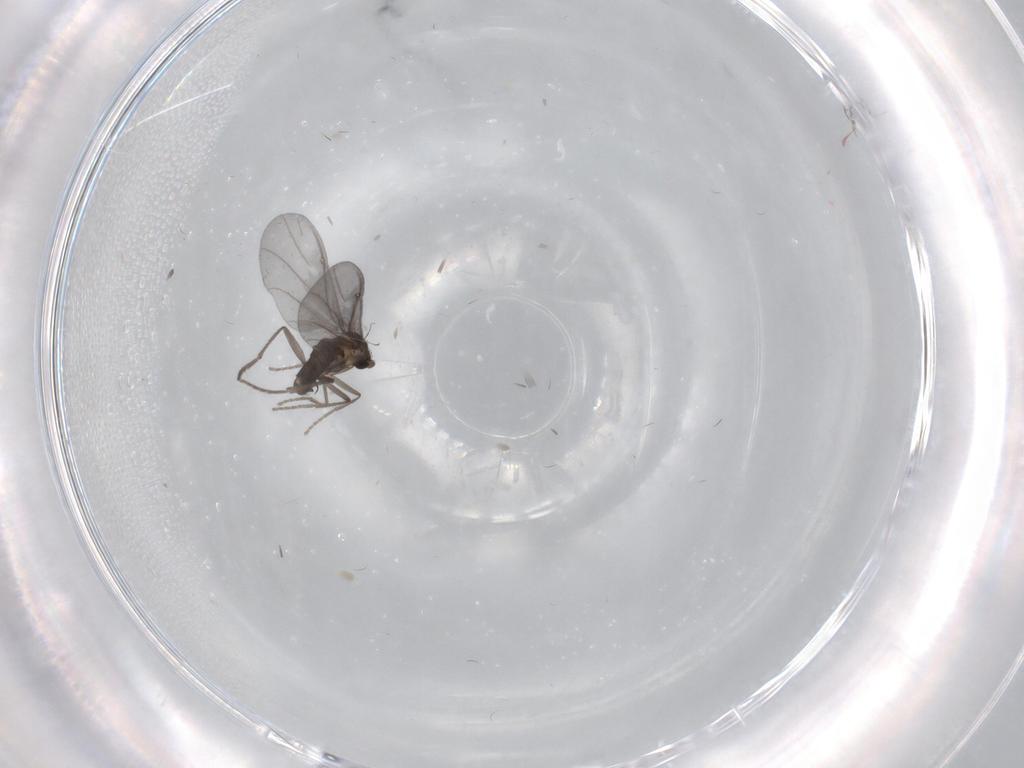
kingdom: Animalia
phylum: Arthropoda
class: Insecta
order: Diptera
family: Phoridae
